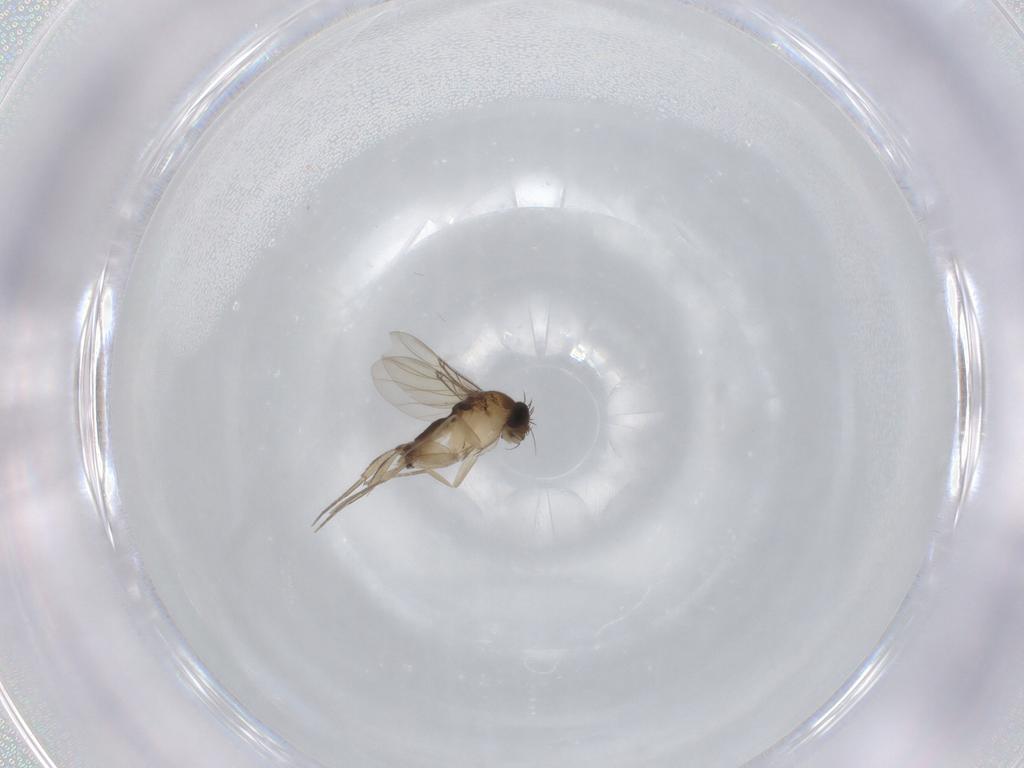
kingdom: Animalia
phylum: Arthropoda
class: Insecta
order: Diptera
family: Phoridae
